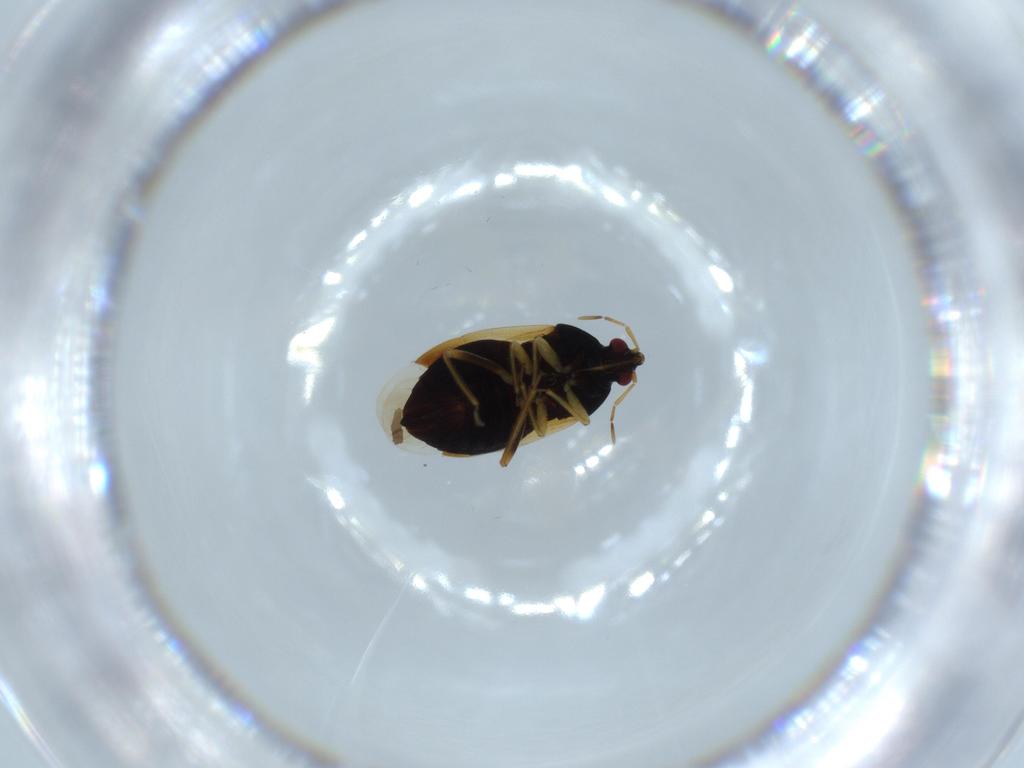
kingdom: Animalia
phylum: Arthropoda
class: Insecta
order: Hemiptera
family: Anthocoridae
